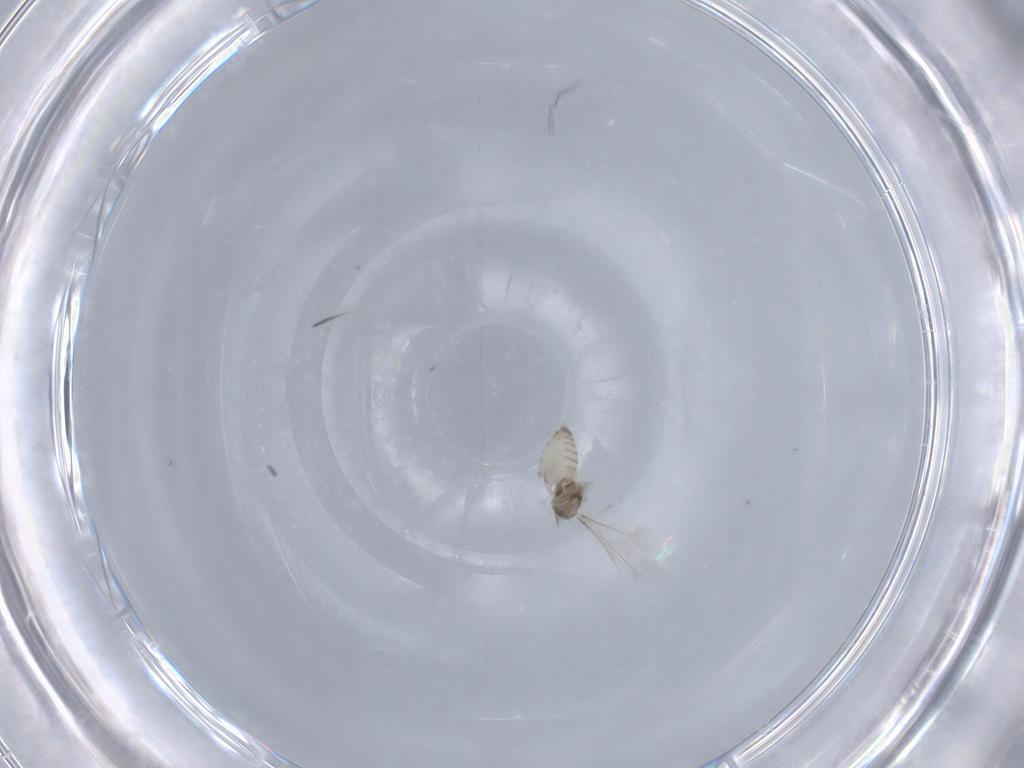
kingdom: Animalia
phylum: Arthropoda
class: Insecta
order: Diptera
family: Cecidomyiidae
